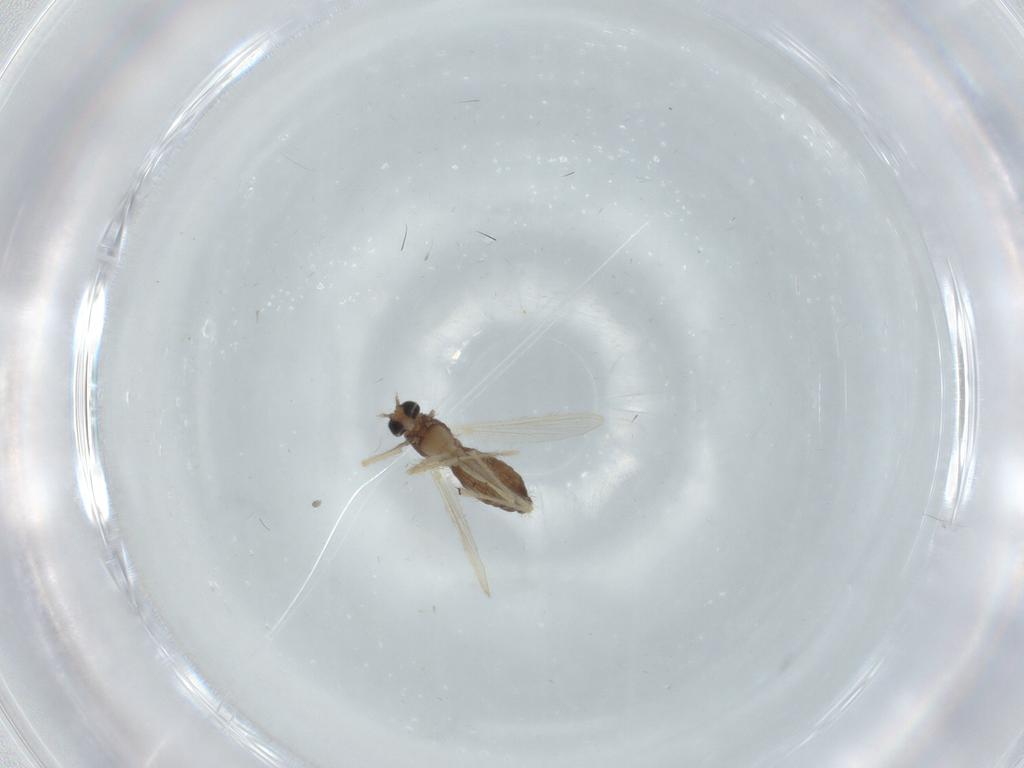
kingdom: Animalia
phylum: Arthropoda
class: Insecta
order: Diptera
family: Chironomidae
